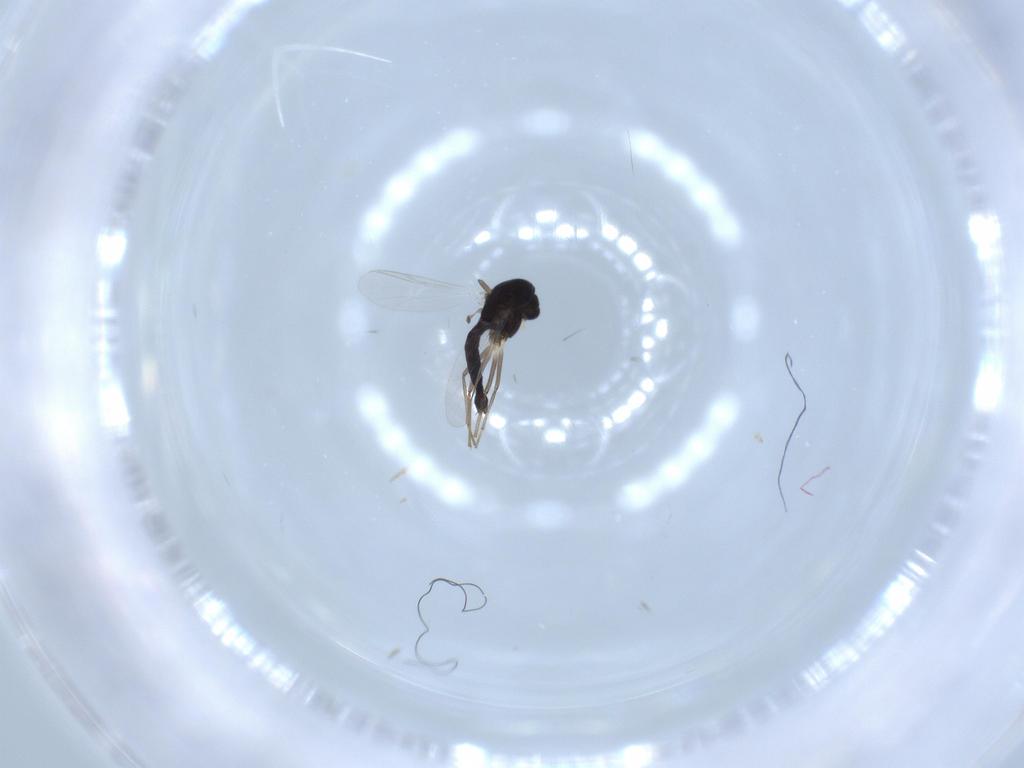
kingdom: Animalia
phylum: Arthropoda
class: Insecta
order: Diptera
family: Chironomidae
